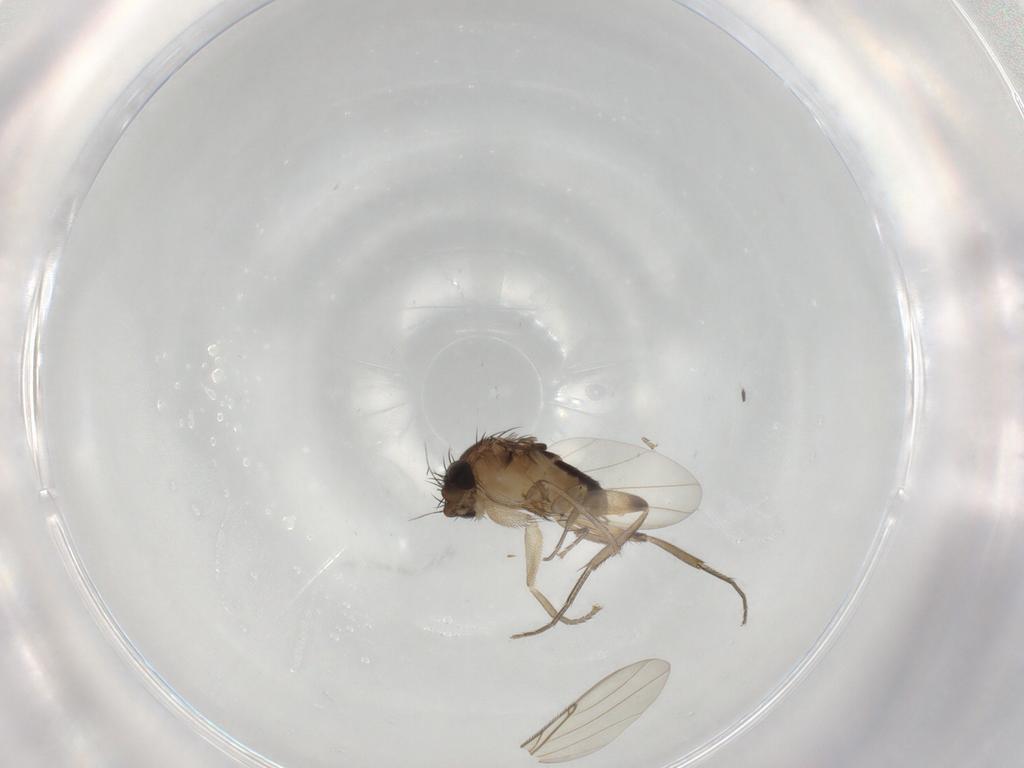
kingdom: Animalia
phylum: Arthropoda
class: Insecta
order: Diptera
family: Phoridae
